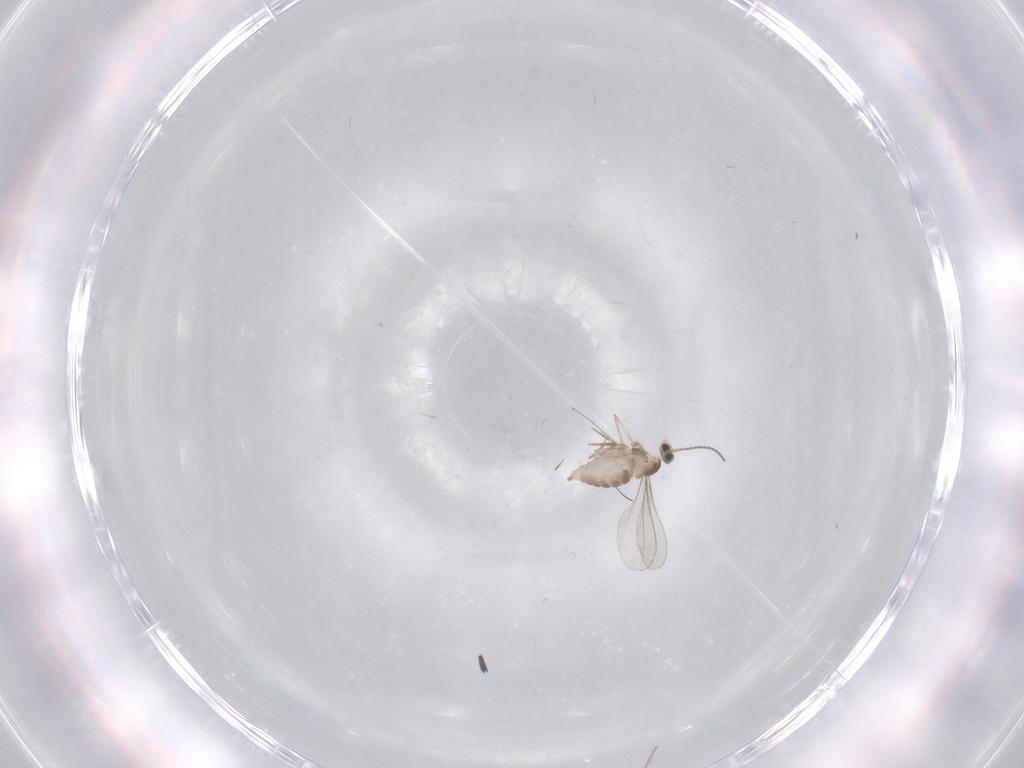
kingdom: Animalia
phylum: Arthropoda
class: Insecta
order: Diptera
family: Cecidomyiidae
